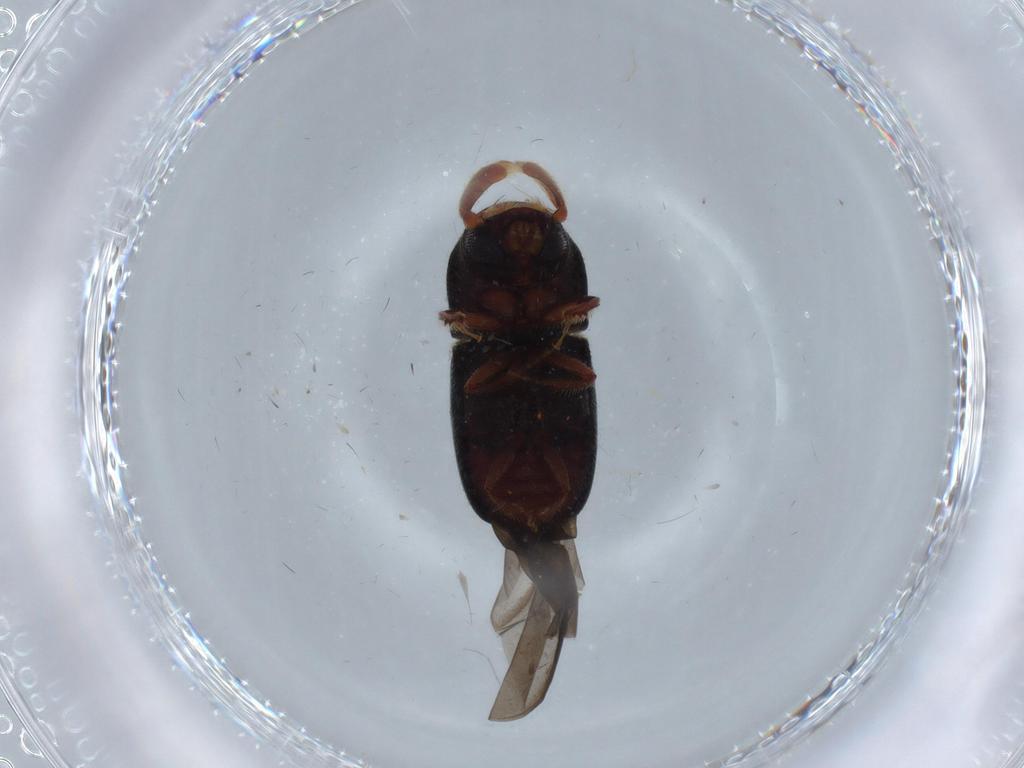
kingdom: Animalia
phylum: Arthropoda
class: Insecta
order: Coleoptera
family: Curculionidae
